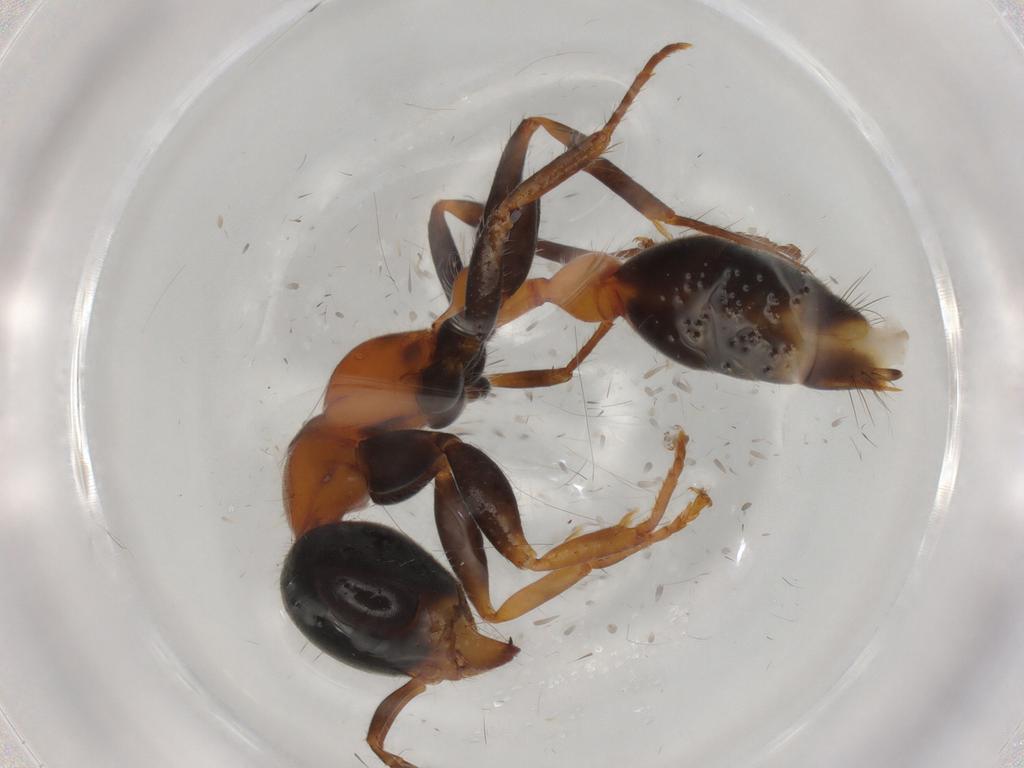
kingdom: Animalia
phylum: Arthropoda
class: Insecta
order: Hymenoptera
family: Formicidae
